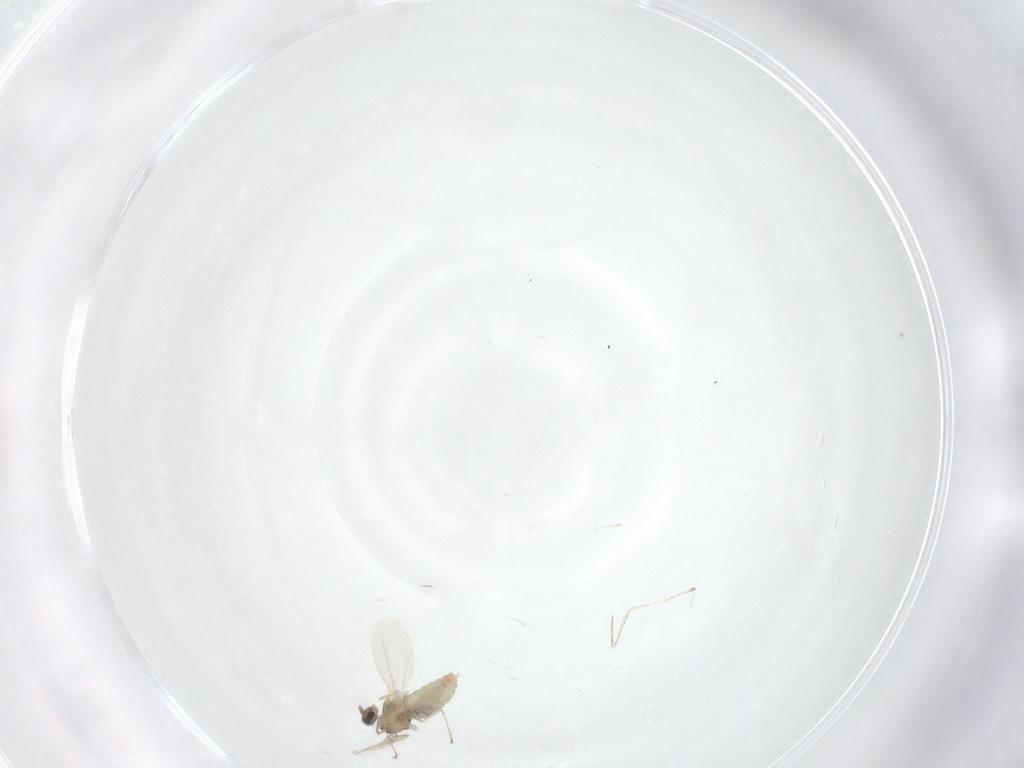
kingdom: Animalia
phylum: Arthropoda
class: Insecta
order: Diptera
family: Cecidomyiidae
